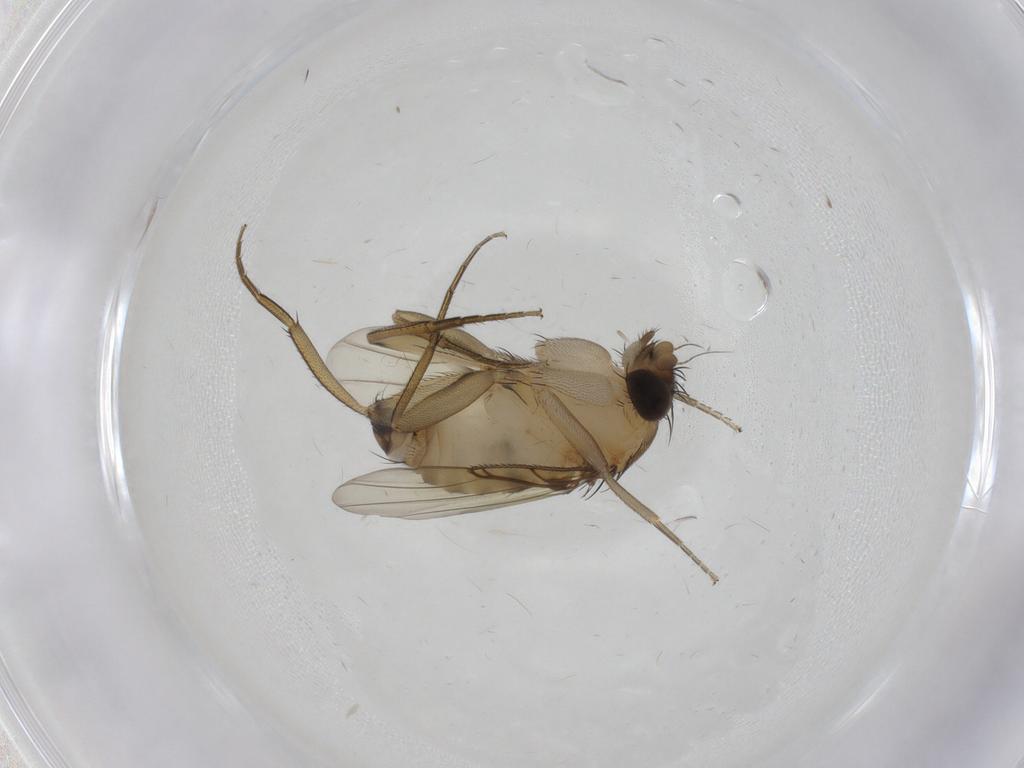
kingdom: Animalia
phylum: Arthropoda
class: Insecta
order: Diptera
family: Phoridae
